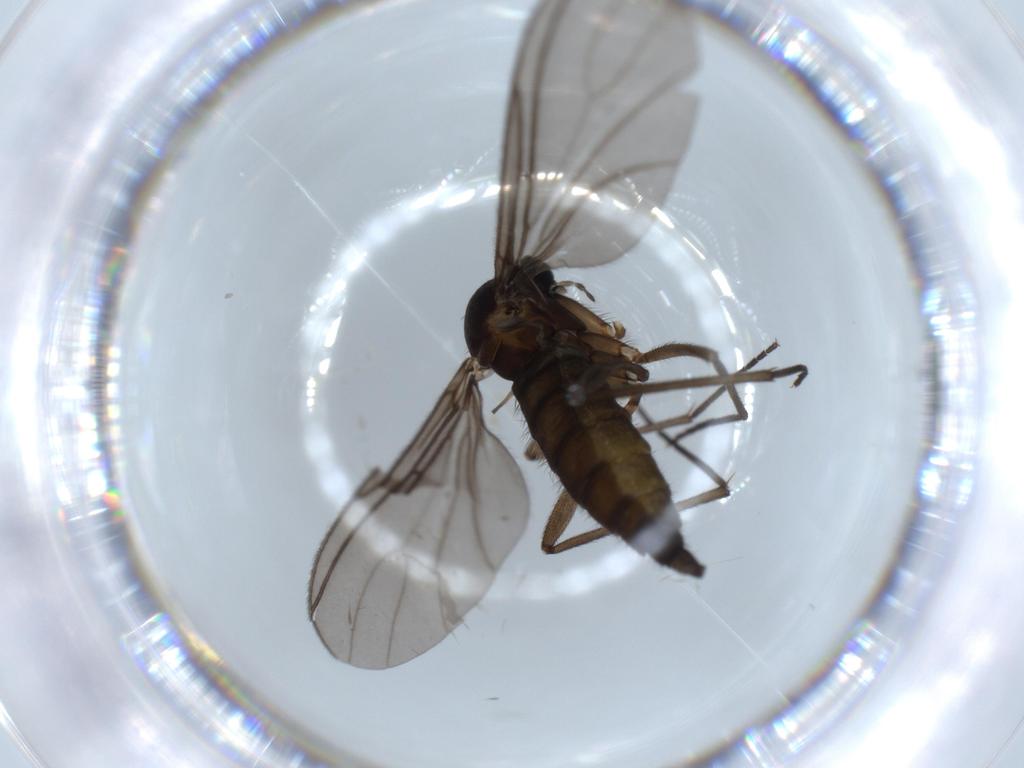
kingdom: Animalia
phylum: Arthropoda
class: Insecta
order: Diptera
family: Sciaridae
